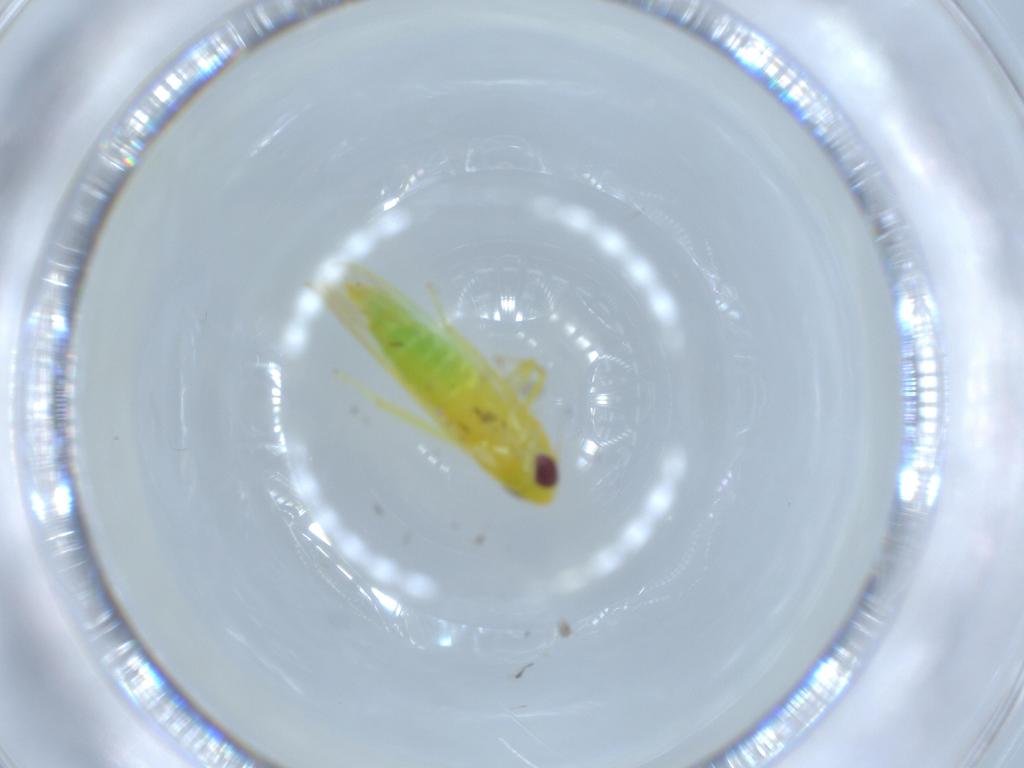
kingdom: Animalia
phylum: Arthropoda
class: Insecta
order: Hemiptera
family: Cicadellidae
